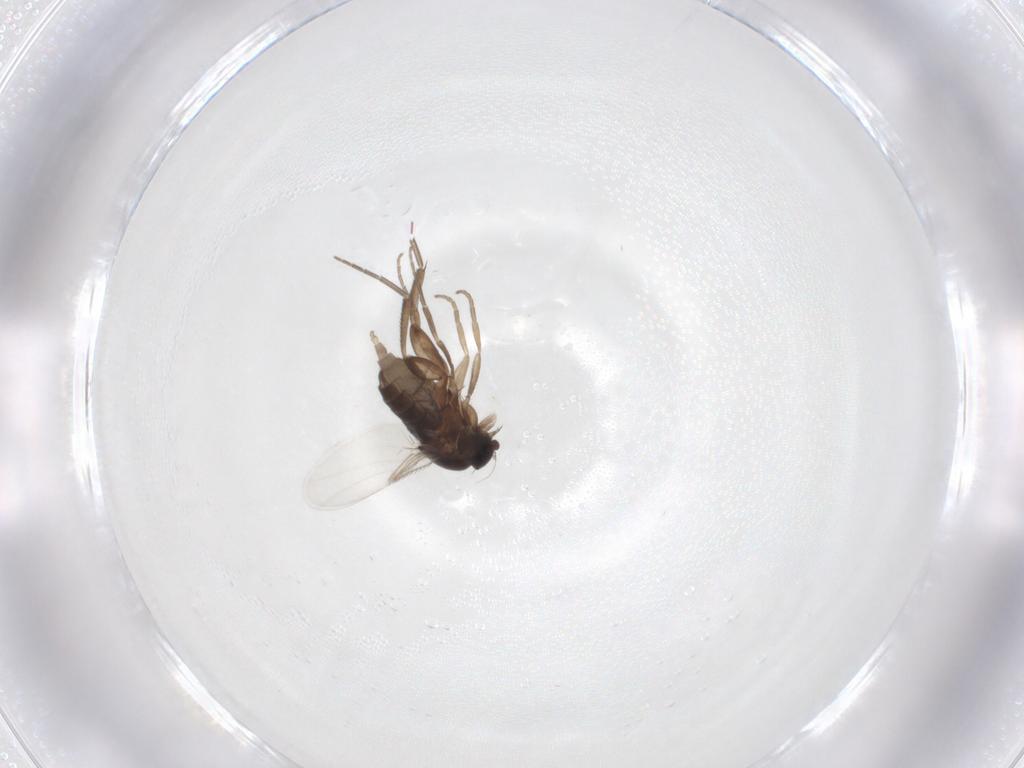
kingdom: Animalia
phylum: Arthropoda
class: Insecta
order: Diptera
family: Phoridae
